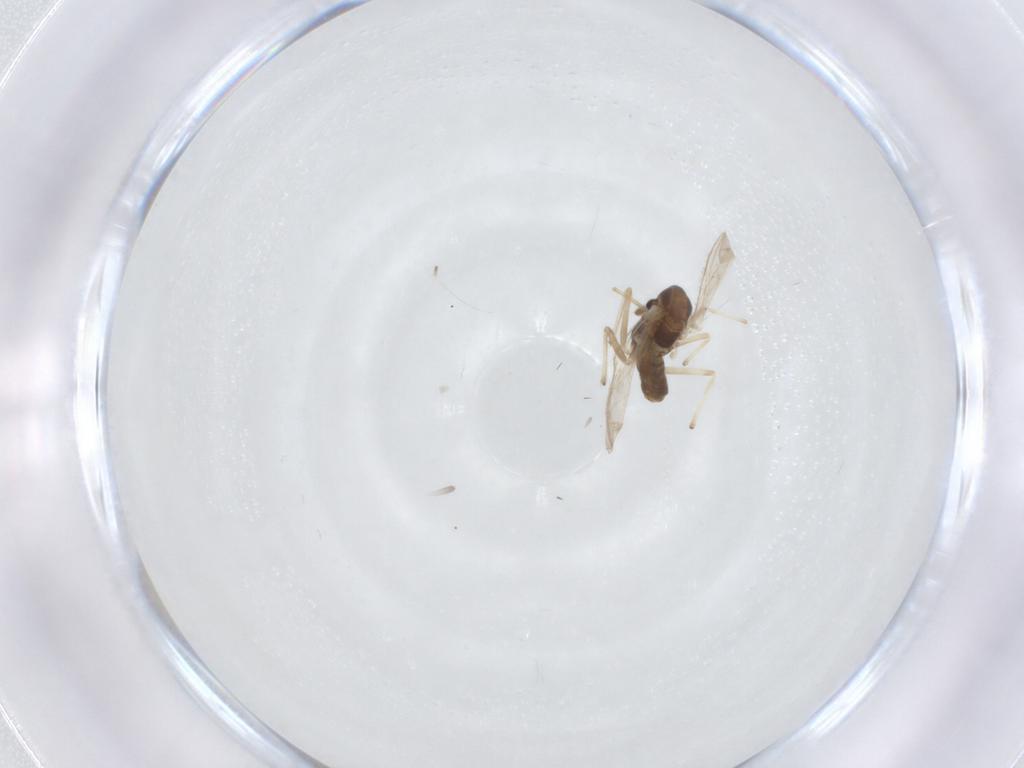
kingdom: Animalia
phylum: Arthropoda
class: Insecta
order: Diptera
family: Chironomidae
